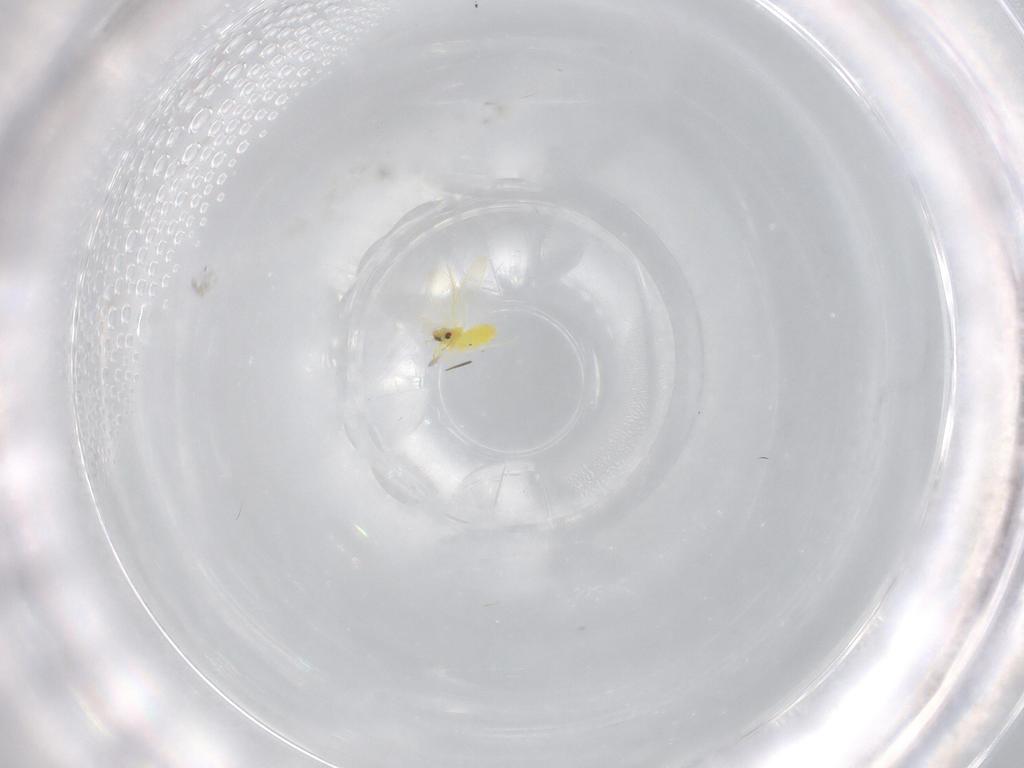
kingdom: Animalia
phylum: Arthropoda
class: Insecta
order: Hemiptera
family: Aleyrodidae
